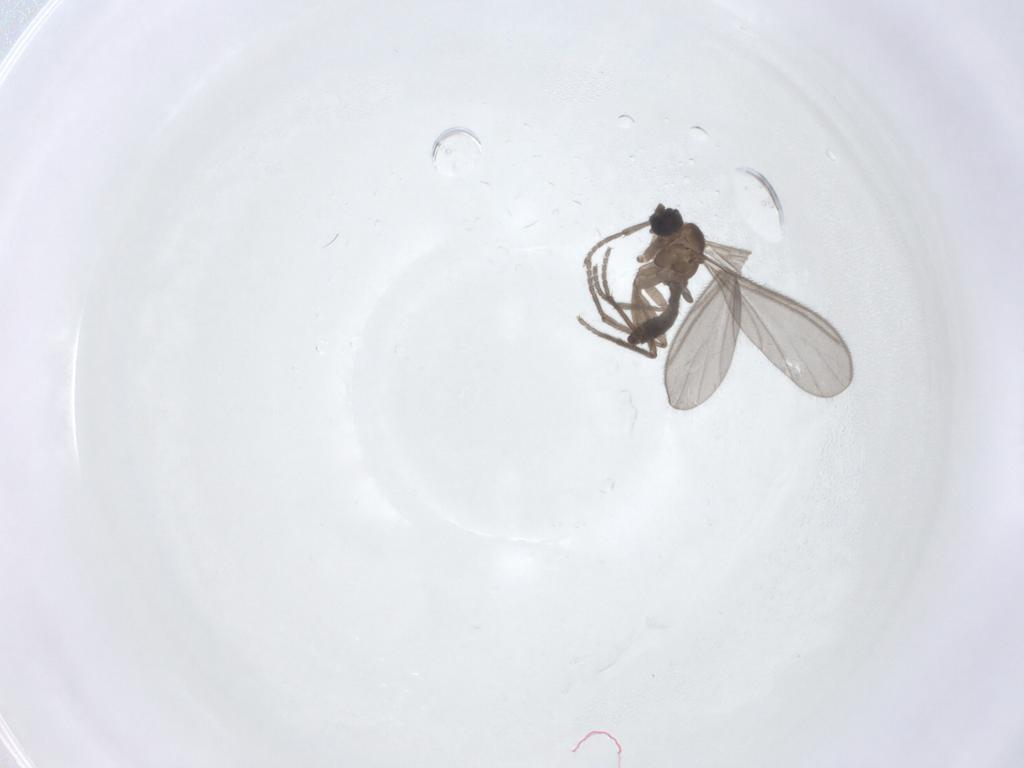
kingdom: Animalia
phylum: Arthropoda
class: Insecta
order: Diptera
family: Sciaridae
